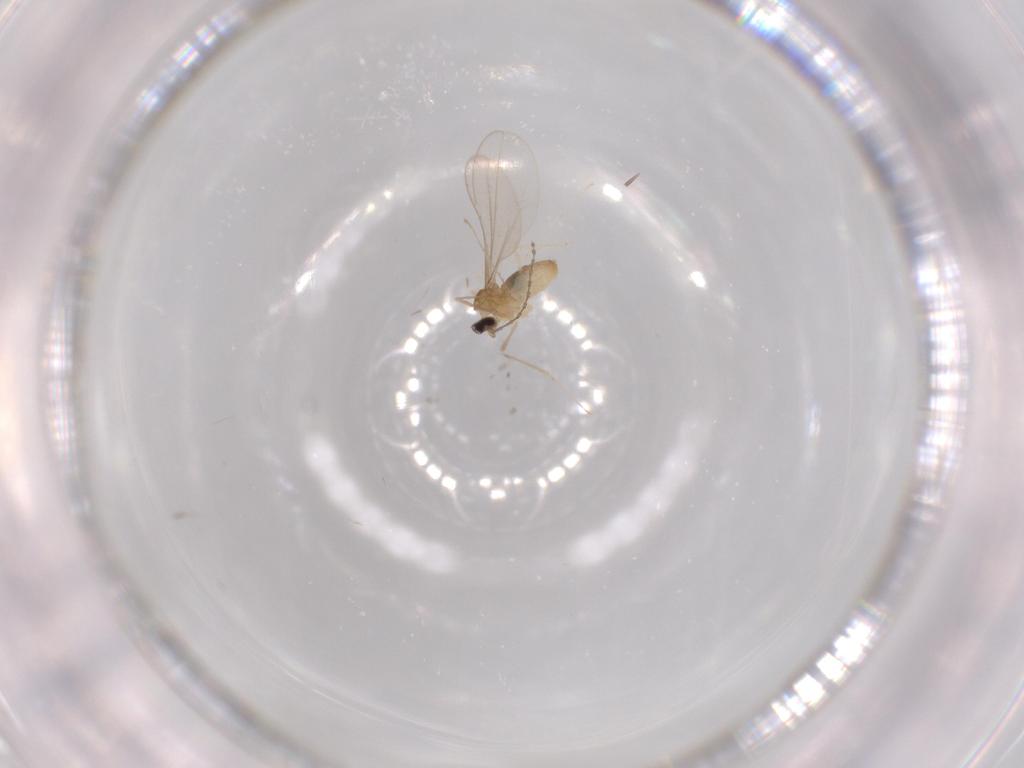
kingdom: Animalia
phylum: Arthropoda
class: Insecta
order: Diptera
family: Cecidomyiidae
